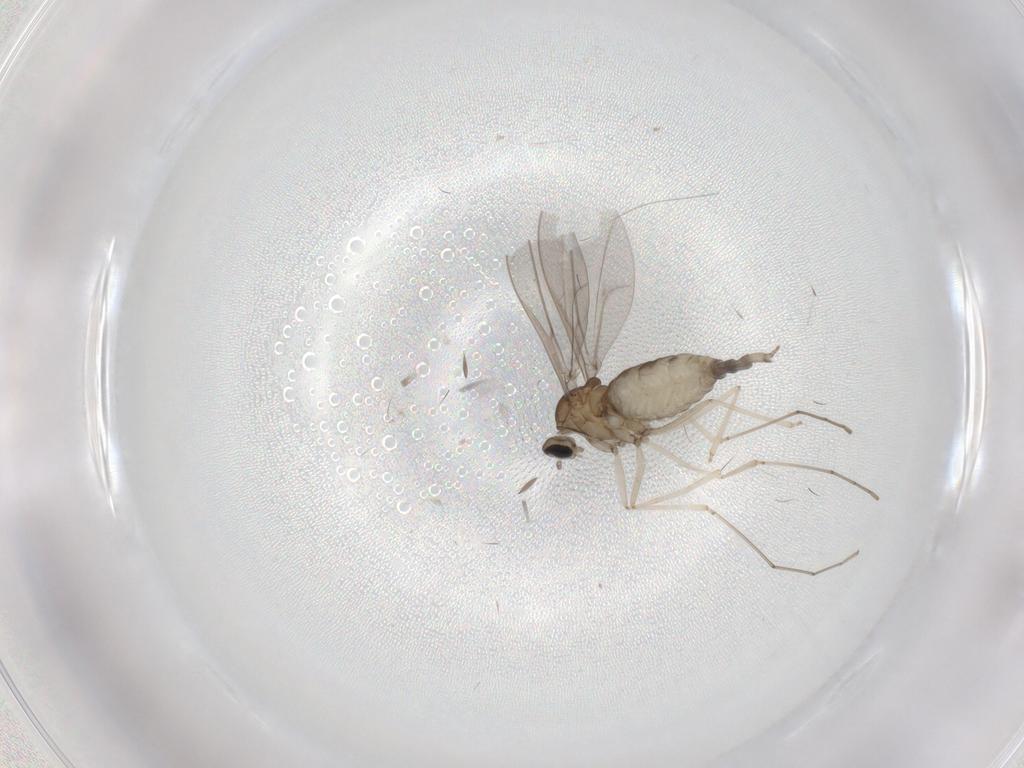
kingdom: Animalia
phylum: Arthropoda
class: Insecta
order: Diptera
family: Cecidomyiidae
